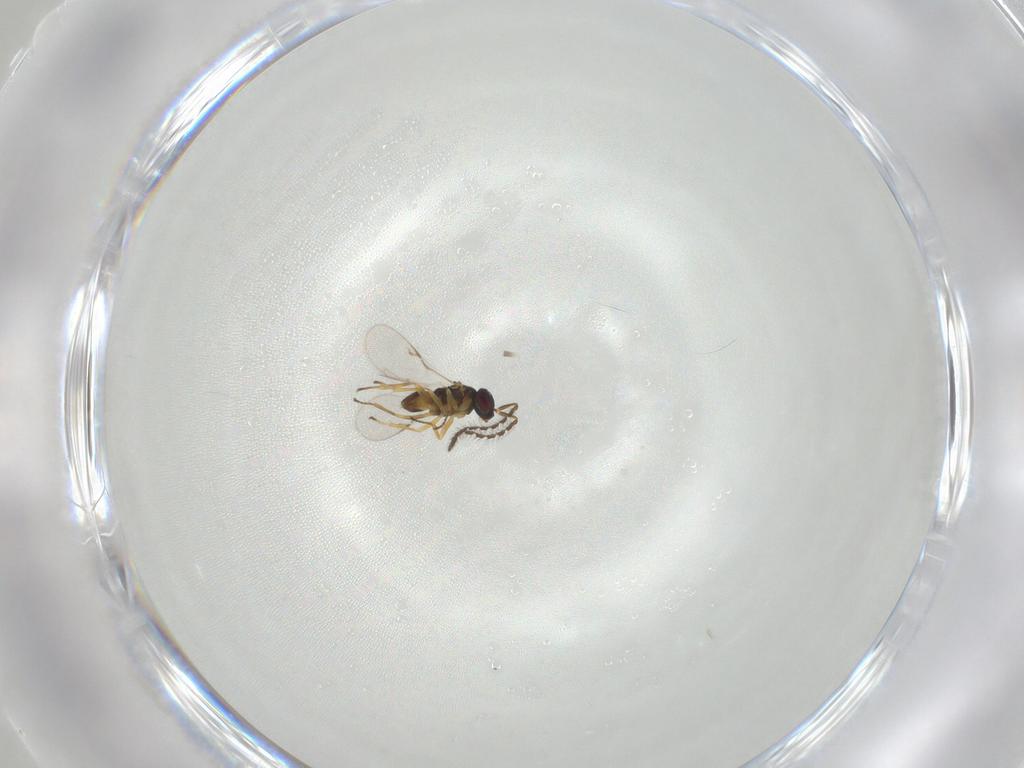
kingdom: Animalia
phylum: Arthropoda
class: Insecta
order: Hymenoptera
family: Encyrtidae
